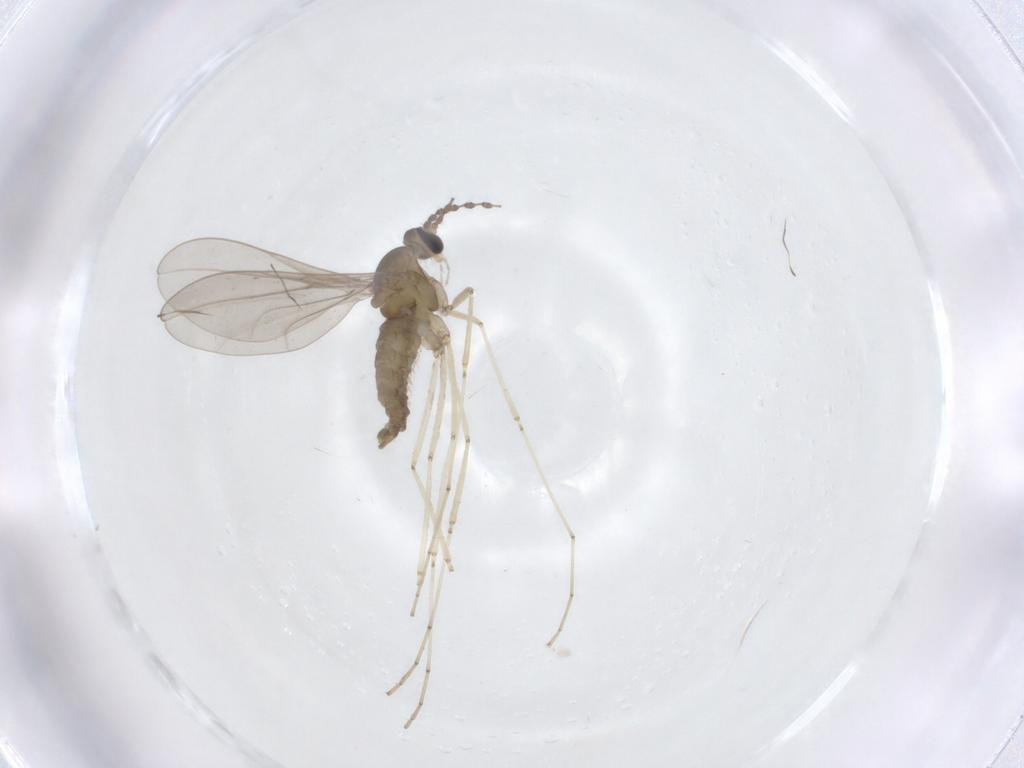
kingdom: Animalia
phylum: Arthropoda
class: Insecta
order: Diptera
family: Cecidomyiidae
